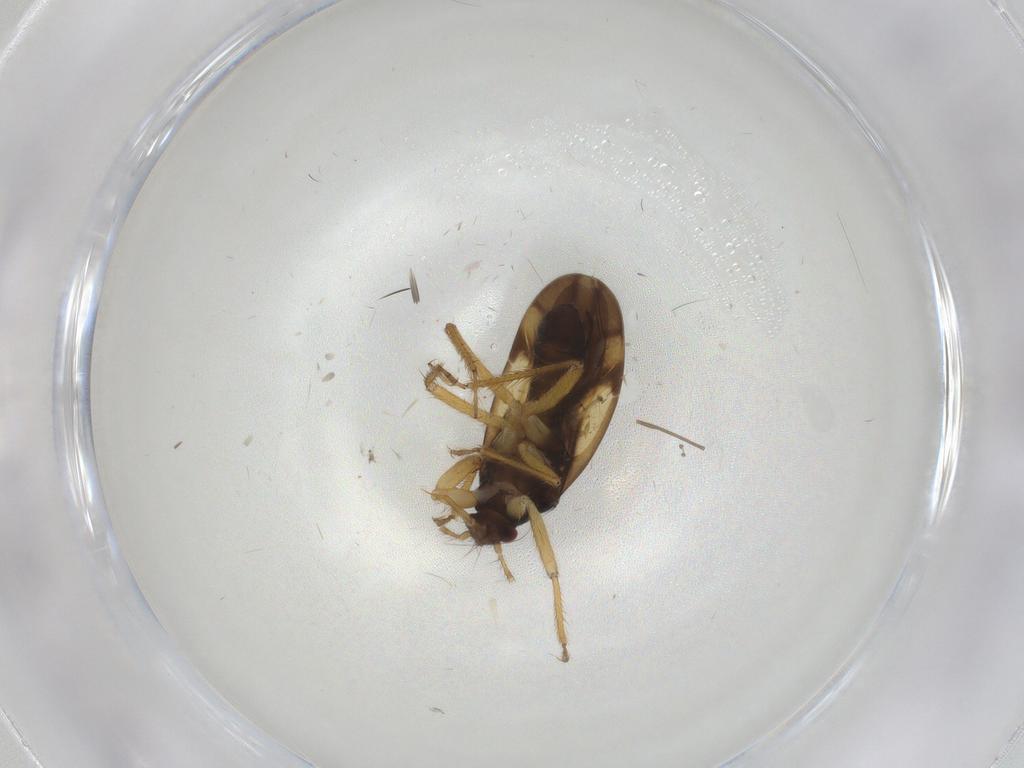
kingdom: Animalia
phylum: Arthropoda
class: Insecta
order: Hemiptera
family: Ceratocombidae
